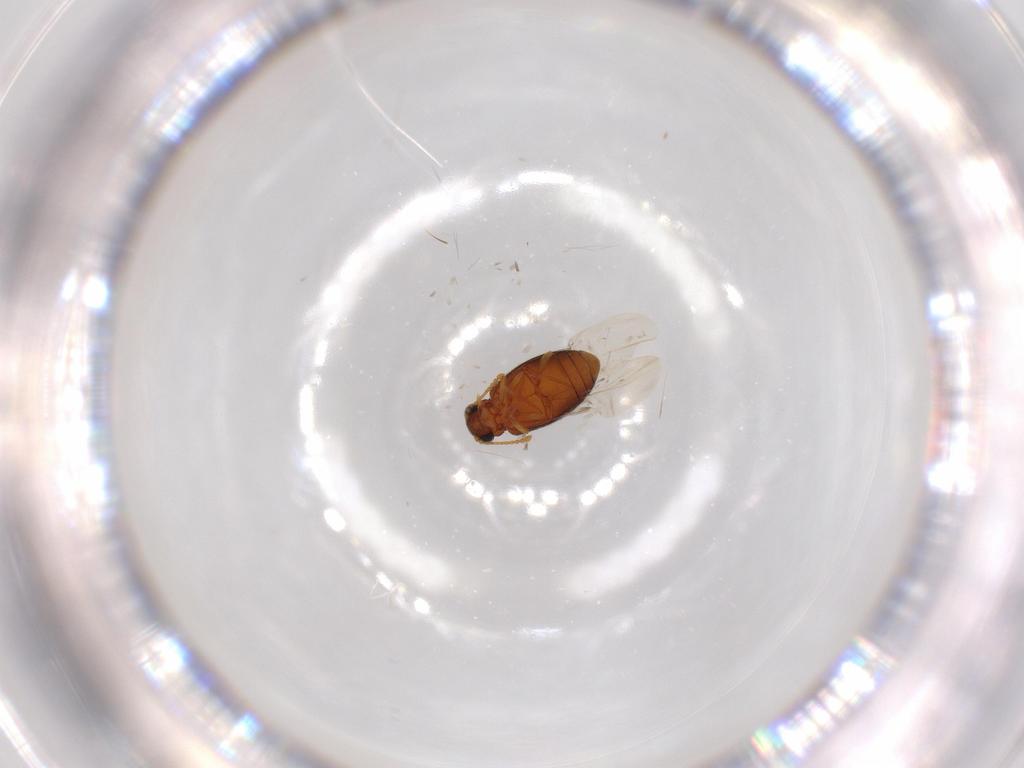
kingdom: Animalia
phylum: Arthropoda
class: Insecta
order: Coleoptera
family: Aderidae
